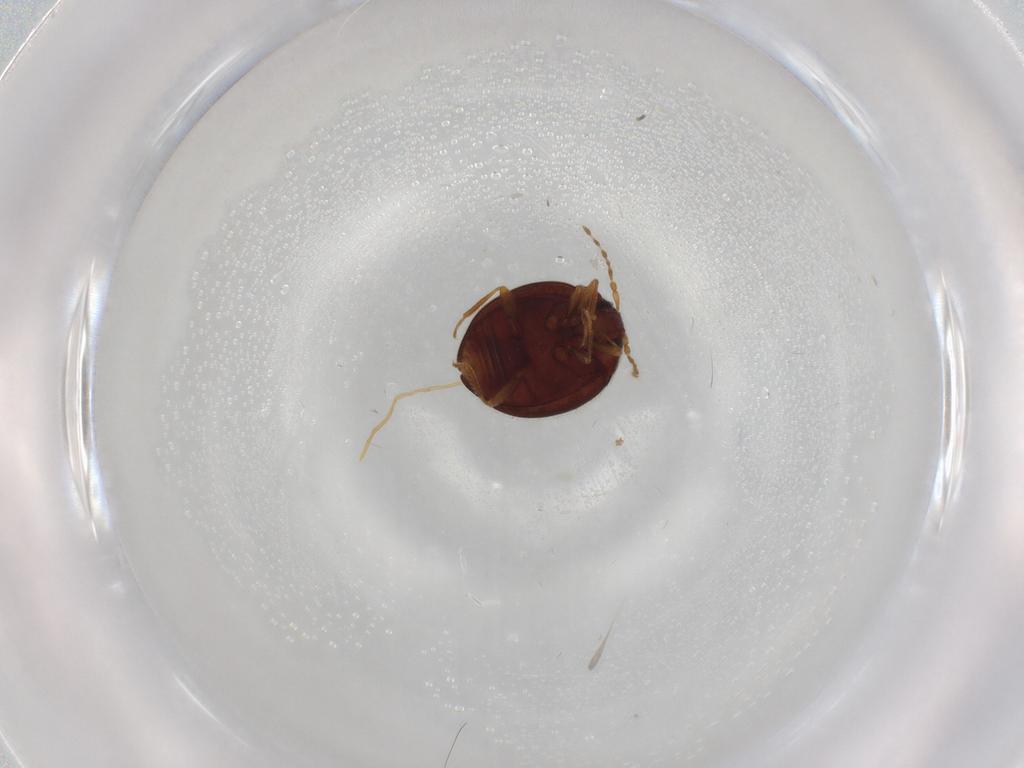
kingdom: Animalia
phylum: Arthropoda
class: Insecta
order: Coleoptera
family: Anamorphidae
